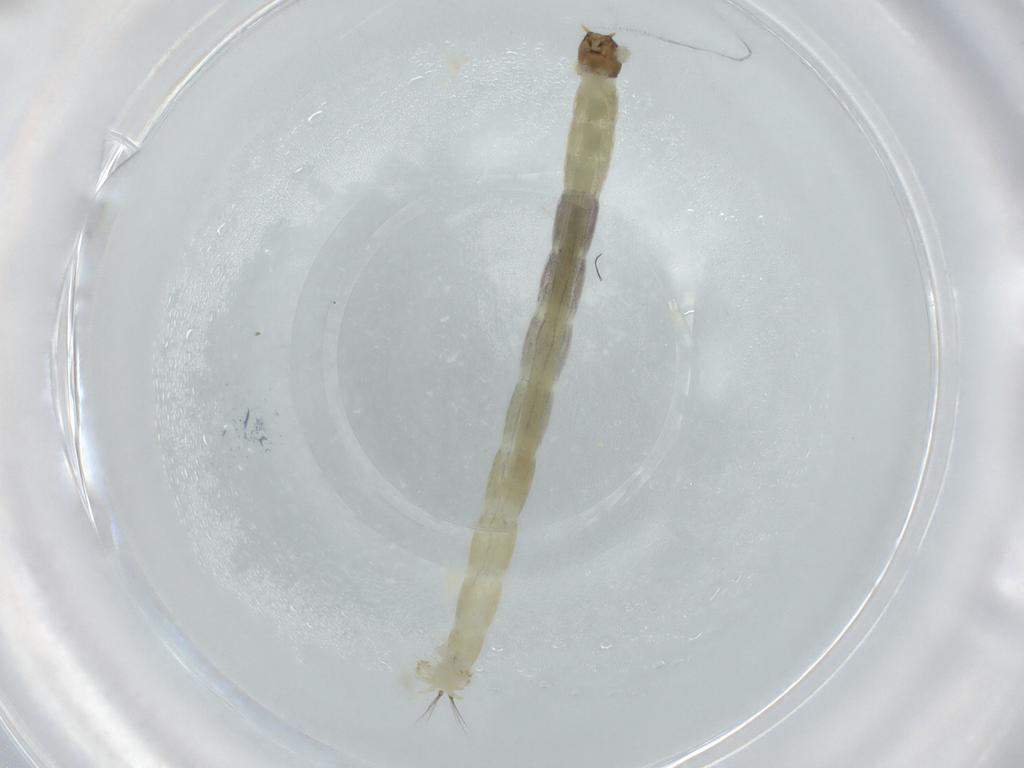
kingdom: Animalia
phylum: Arthropoda
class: Insecta
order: Diptera
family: Chironomidae
